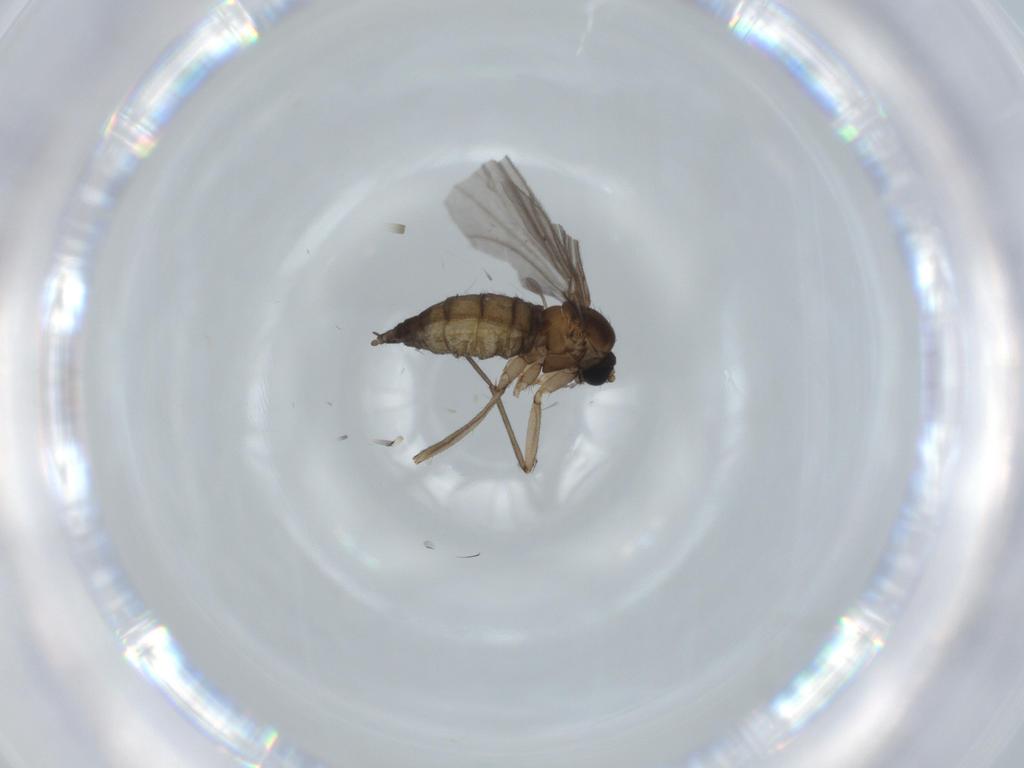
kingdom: Animalia
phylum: Arthropoda
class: Insecta
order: Diptera
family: Sciaridae
